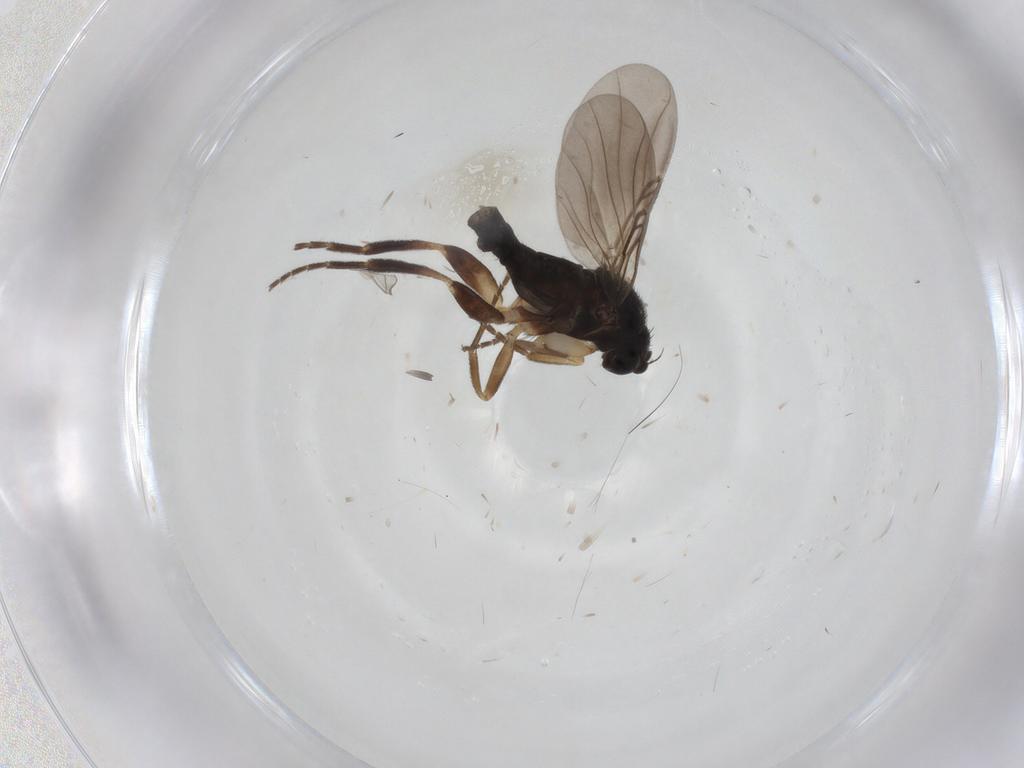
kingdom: Animalia
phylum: Arthropoda
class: Insecta
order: Diptera
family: Phoridae
